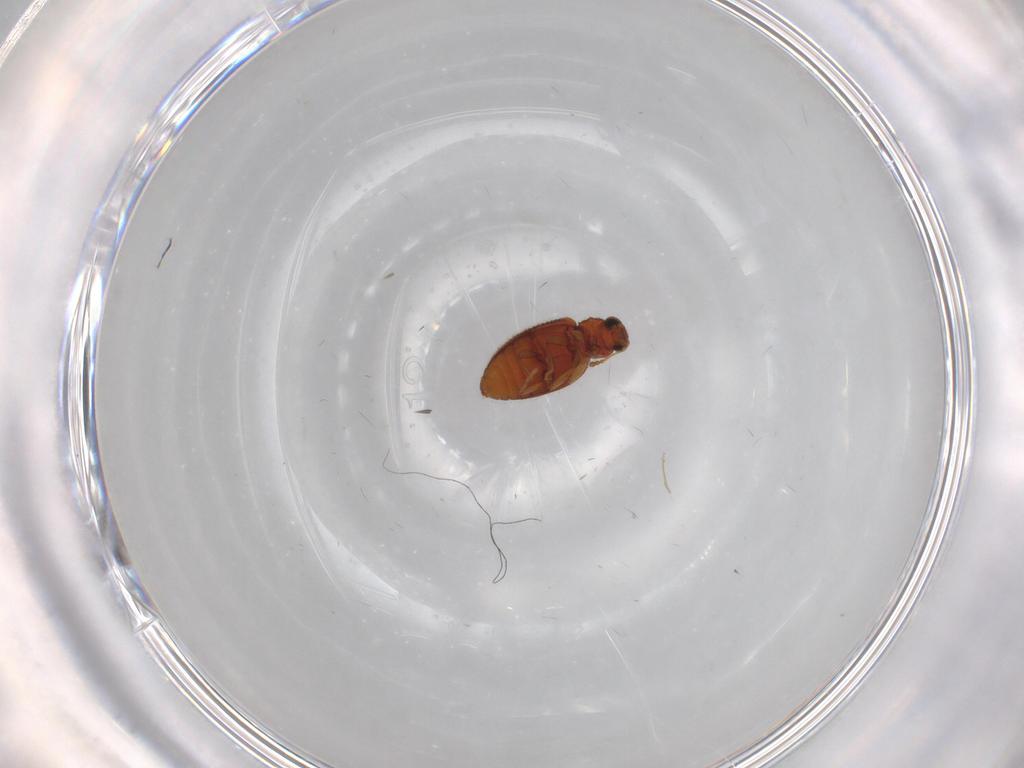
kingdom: Animalia
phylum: Arthropoda
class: Insecta
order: Coleoptera
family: Latridiidae
